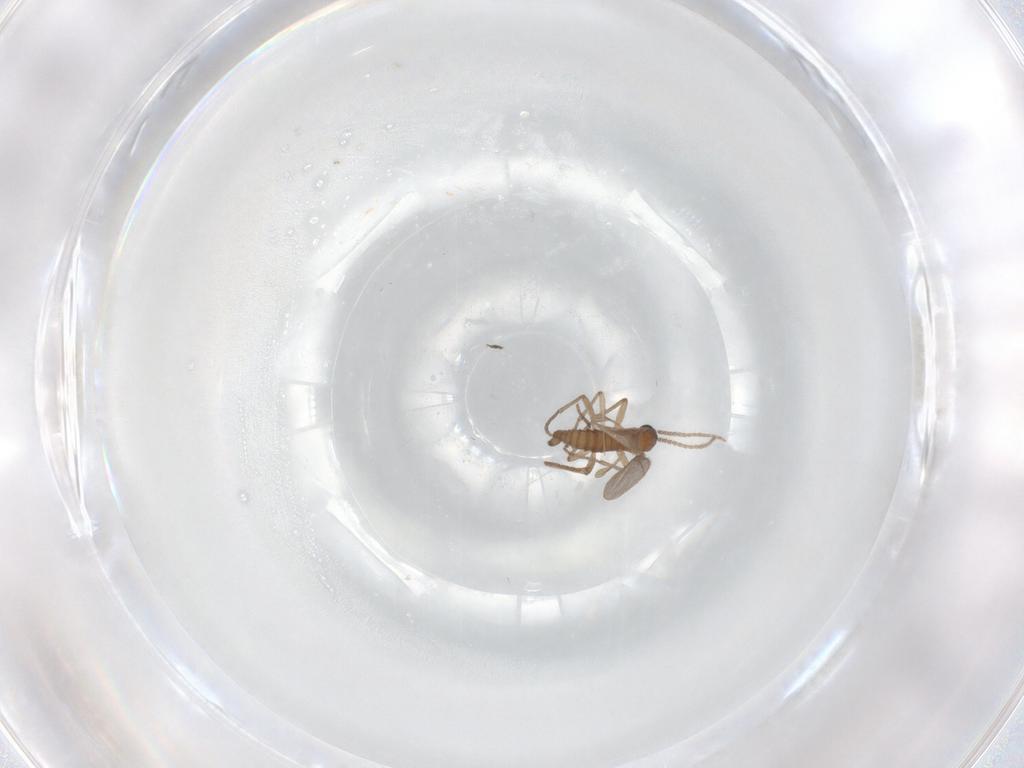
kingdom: Animalia
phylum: Arthropoda
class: Insecta
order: Diptera
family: Sciaridae
